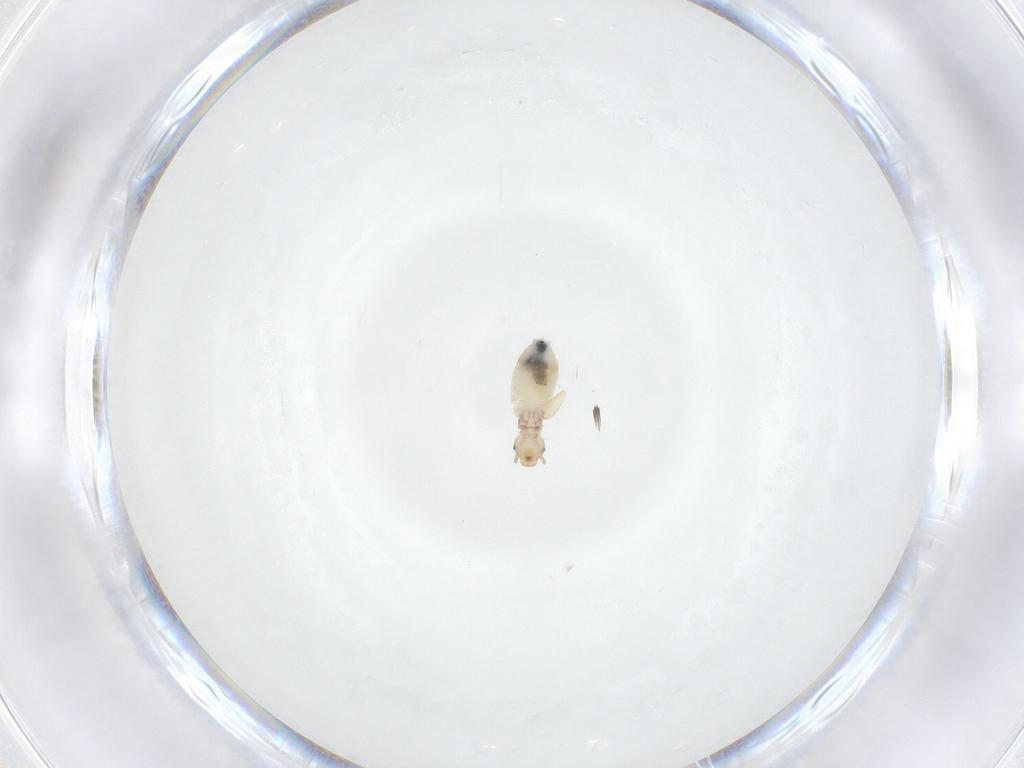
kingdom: Animalia
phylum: Arthropoda
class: Insecta
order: Psocodea
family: Liposcelididae
